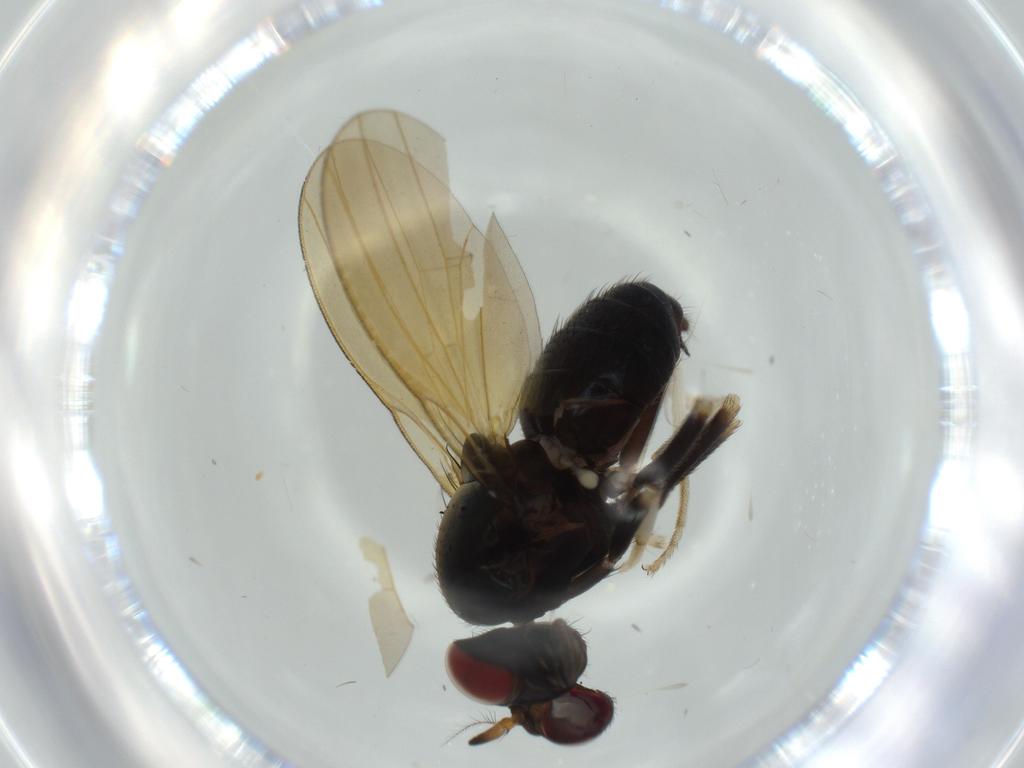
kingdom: Animalia
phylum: Arthropoda
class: Insecta
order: Diptera
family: Lauxaniidae
